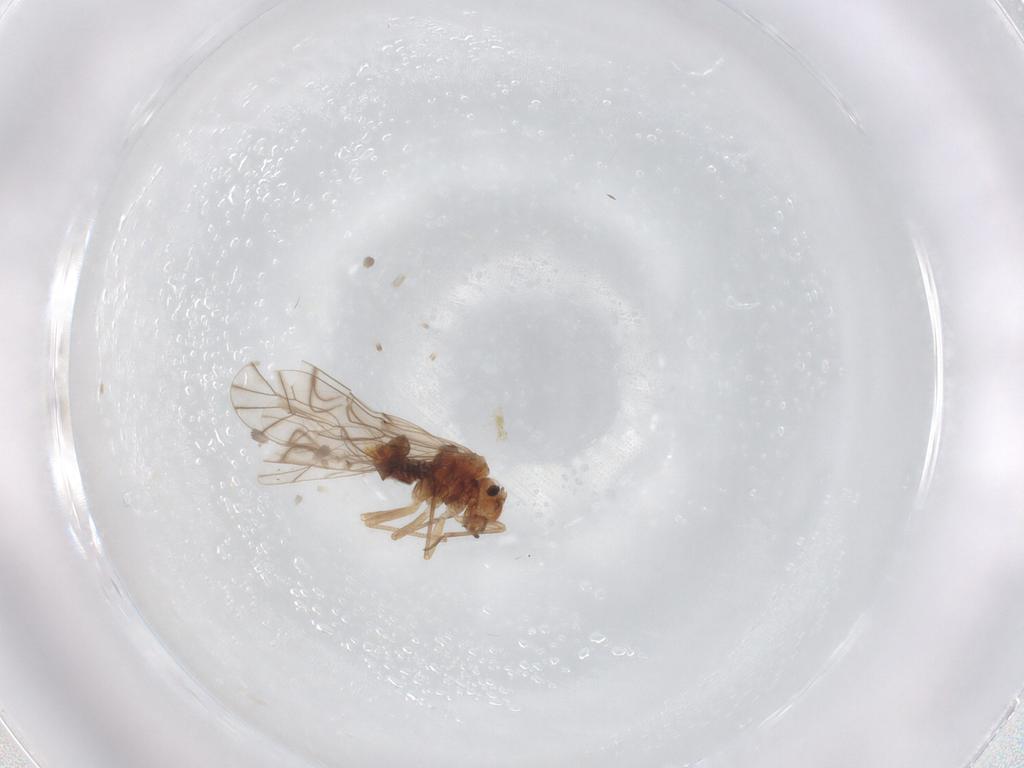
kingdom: Animalia
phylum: Arthropoda
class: Insecta
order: Psocodea
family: Lachesillidae
